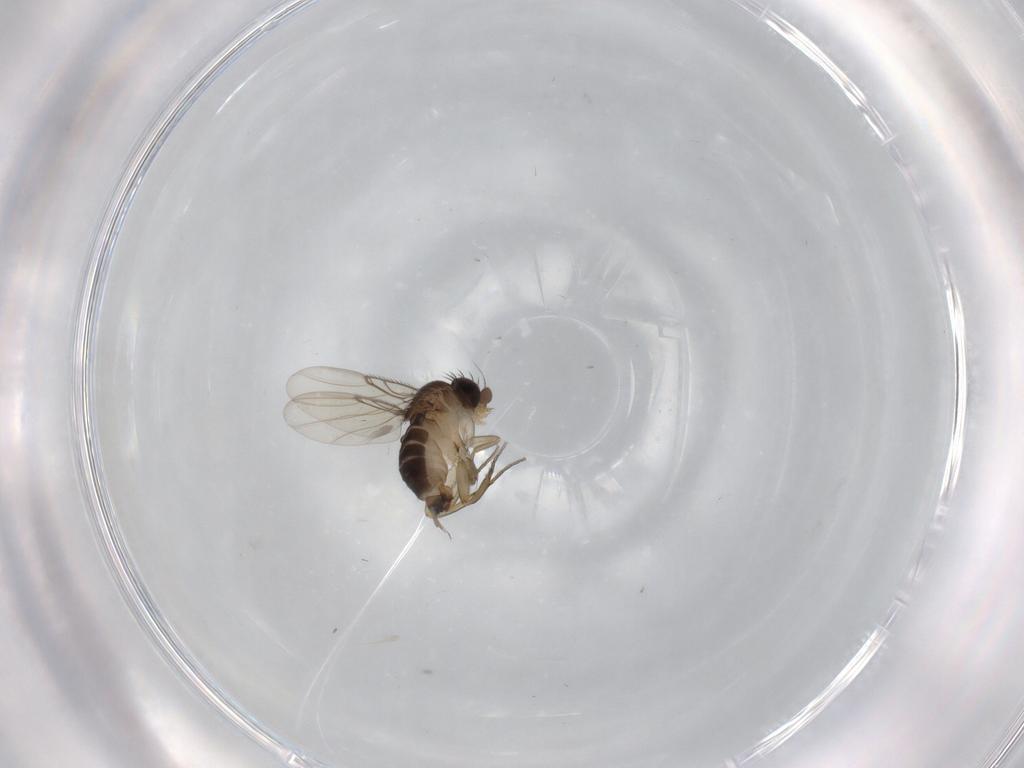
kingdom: Animalia
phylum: Arthropoda
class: Insecta
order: Diptera
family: Phoridae
